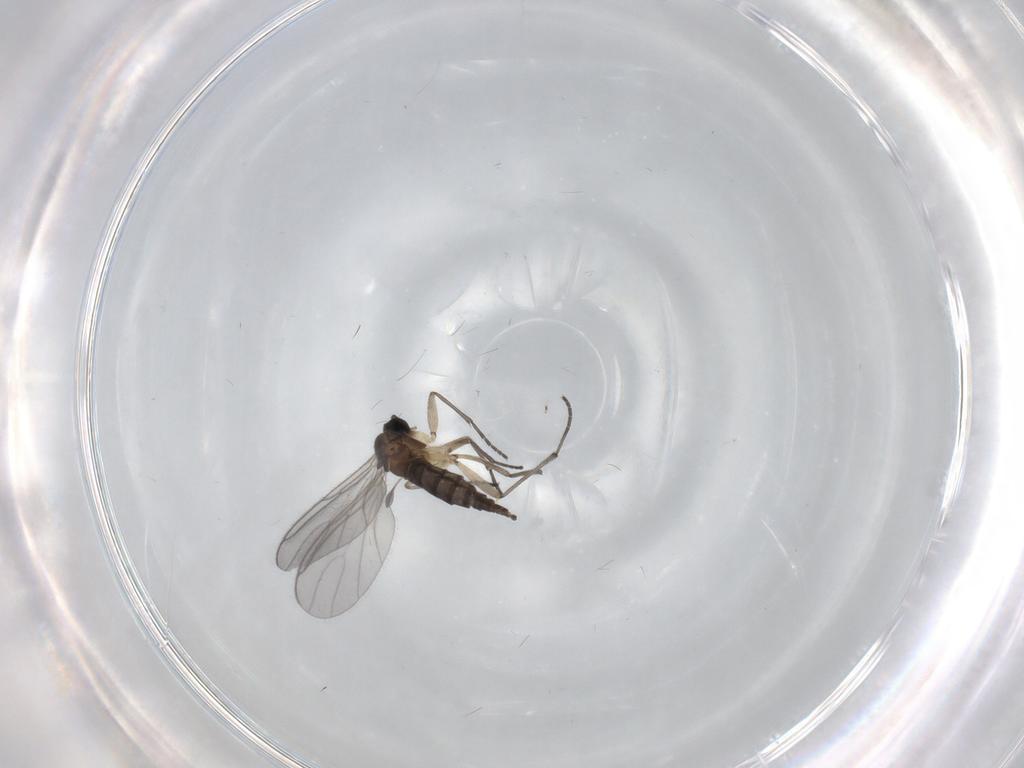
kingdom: Animalia
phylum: Arthropoda
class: Insecta
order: Diptera
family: Sciaridae
